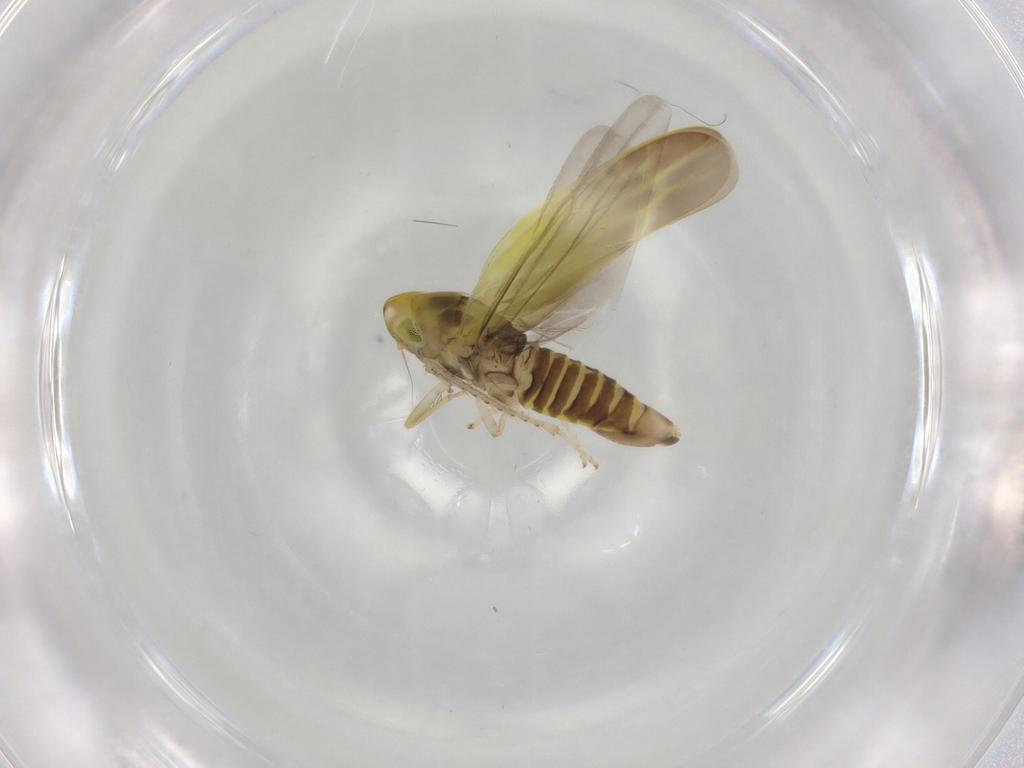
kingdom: Animalia
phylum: Arthropoda
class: Insecta
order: Hemiptera
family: Cicadellidae
